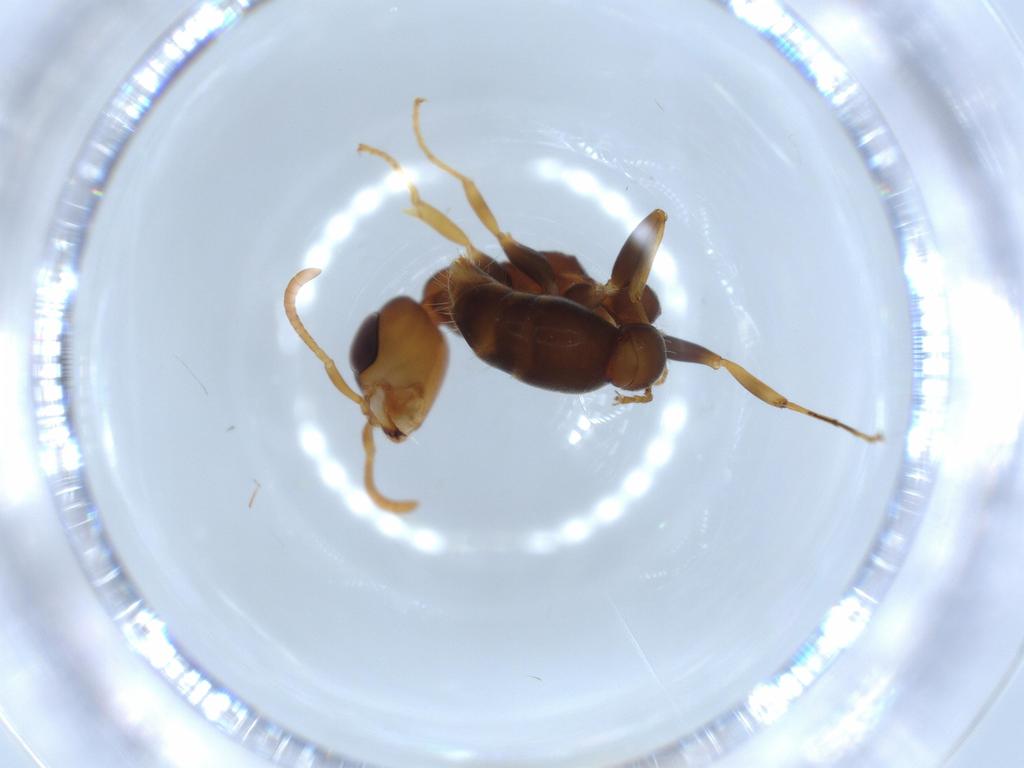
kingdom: Animalia
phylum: Arthropoda
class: Insecta
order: Hymenoptera
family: Formicidae
